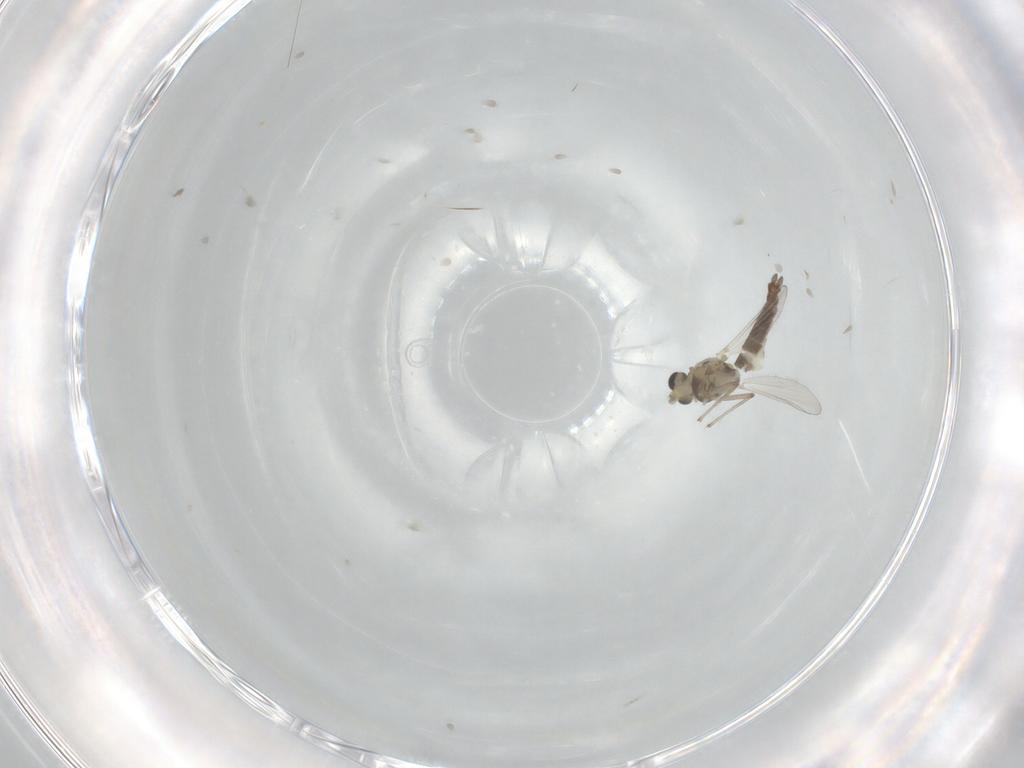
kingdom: Animalia
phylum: Arthropoda
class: Insecta
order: Diptera
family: Chironomidae
